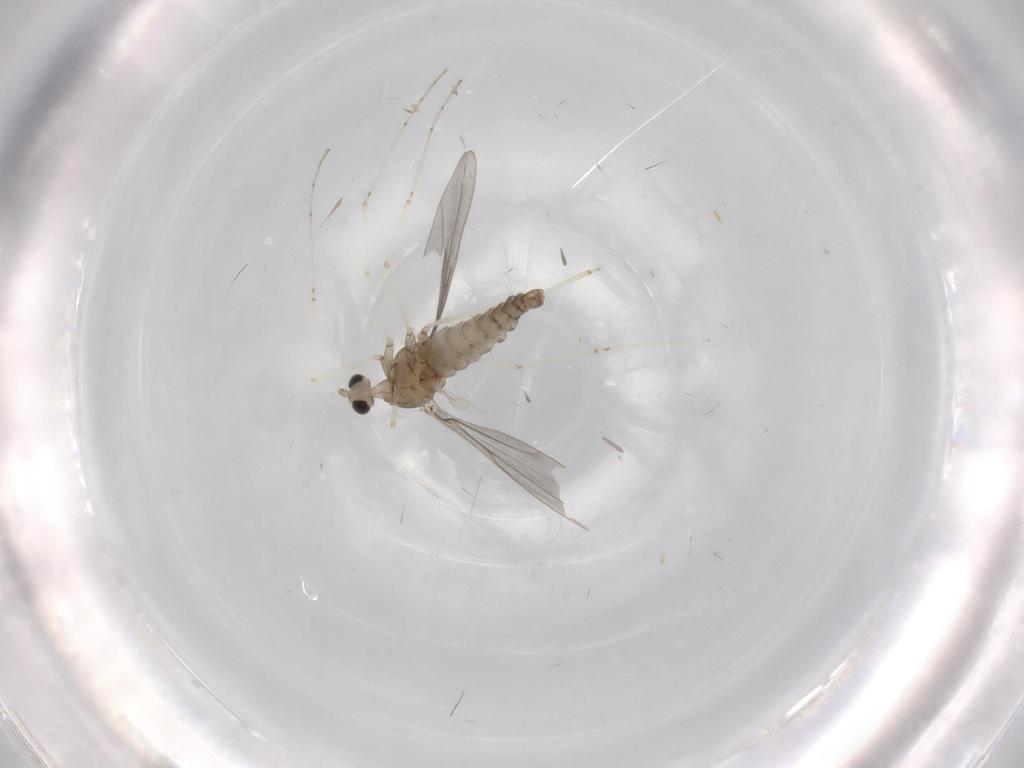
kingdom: Animalia
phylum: Arthropoda
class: Insecta
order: Diptera
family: Cecidomyiidae
